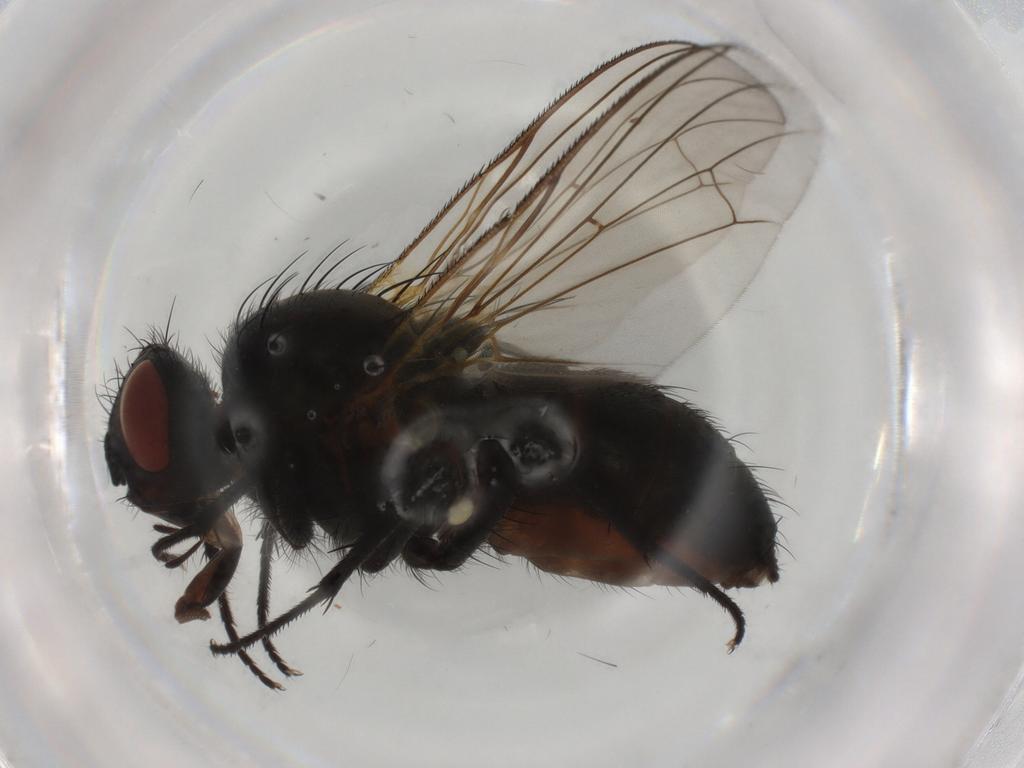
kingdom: Animalia
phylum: Arthropoda
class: Insecta
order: Diptera
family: Anthomyiidae
